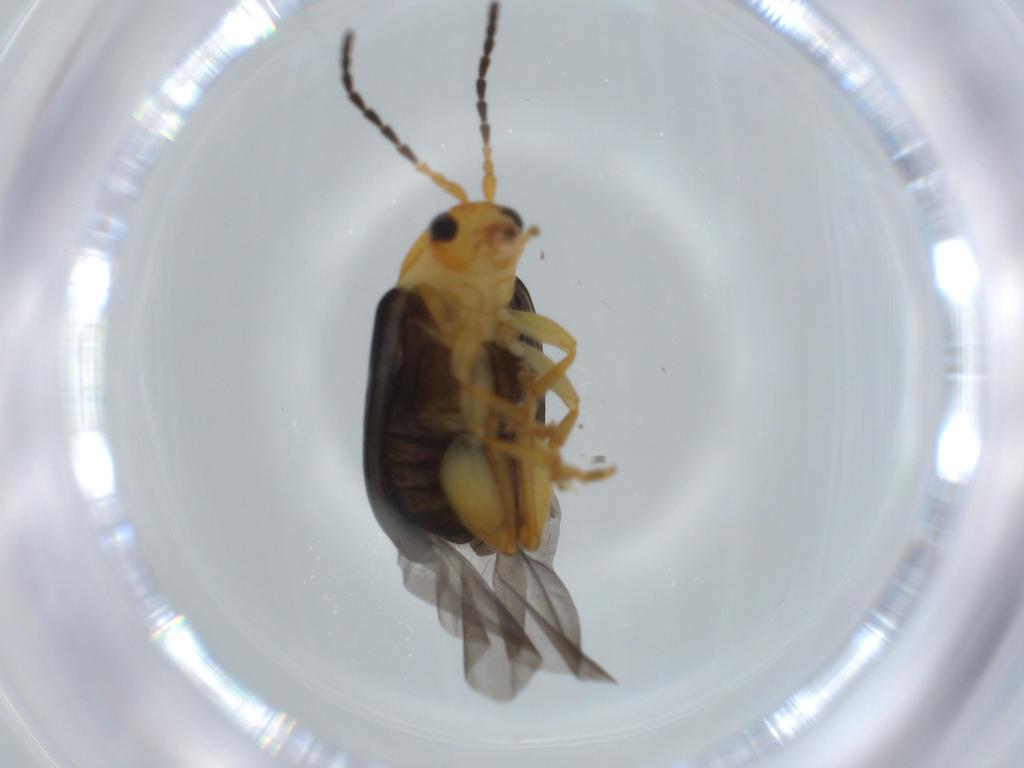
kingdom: Animalia
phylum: Arthropoda
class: Insecta
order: Coleoptera
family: Chrysomelidae
